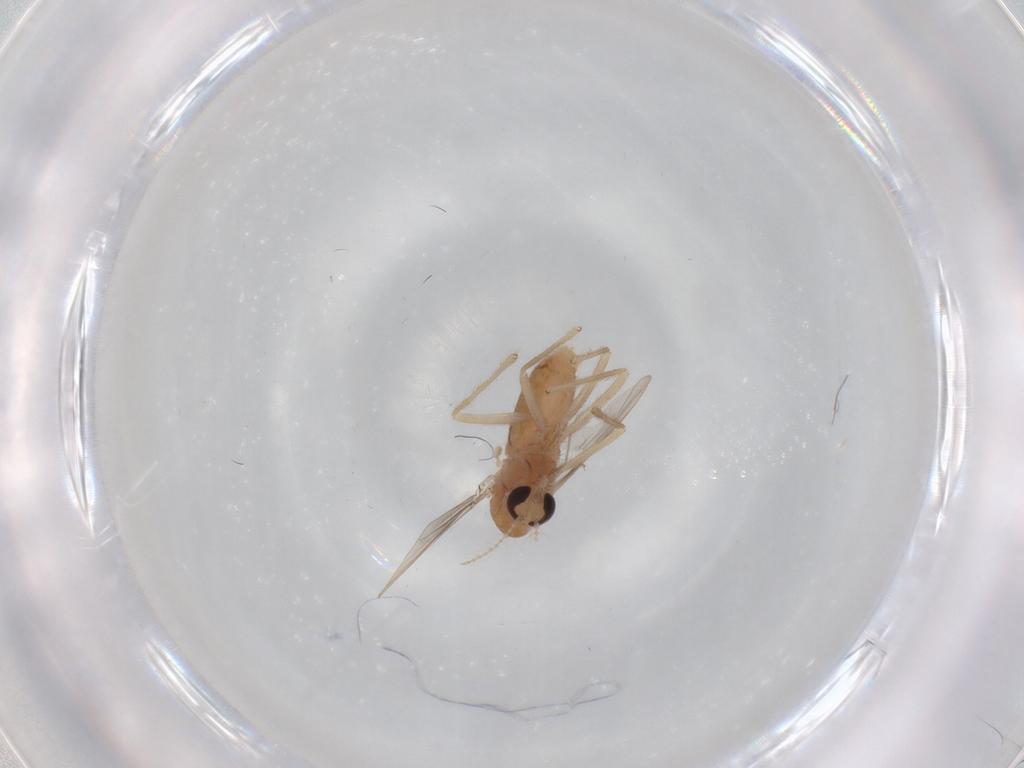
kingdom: Animalia
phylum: Arthropoda
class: Insecta
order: Diptera
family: Chironomidae
